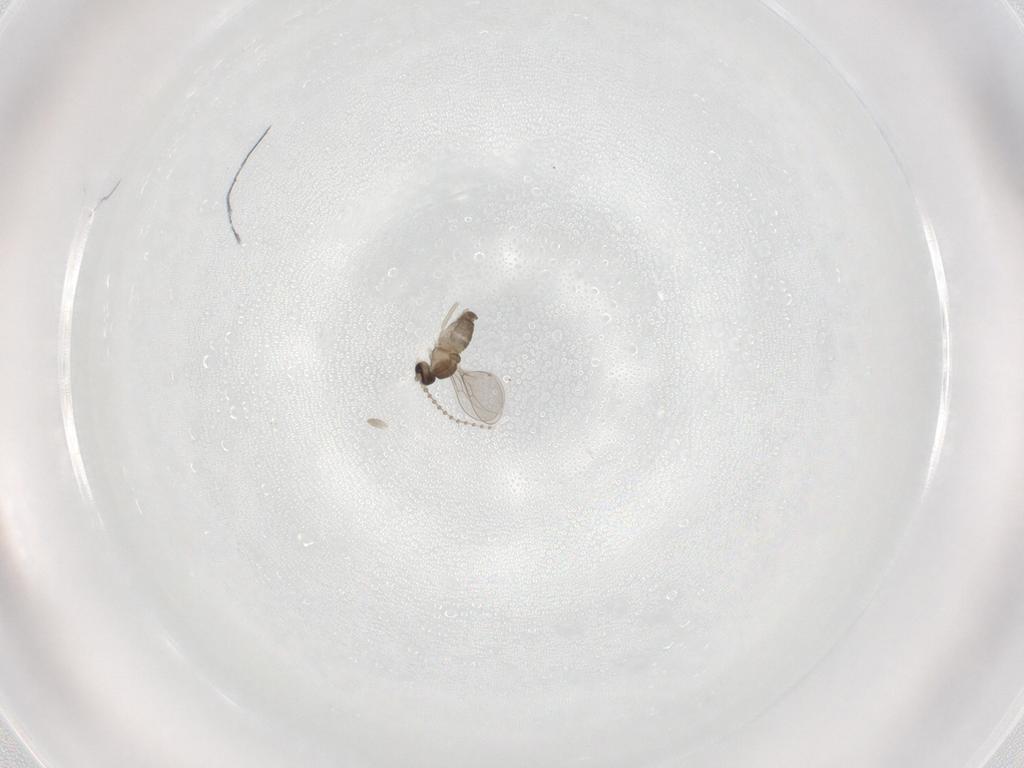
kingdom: Animalia
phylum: Arthropoda
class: Insecta
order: Diptera
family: Cecidomyiidae
